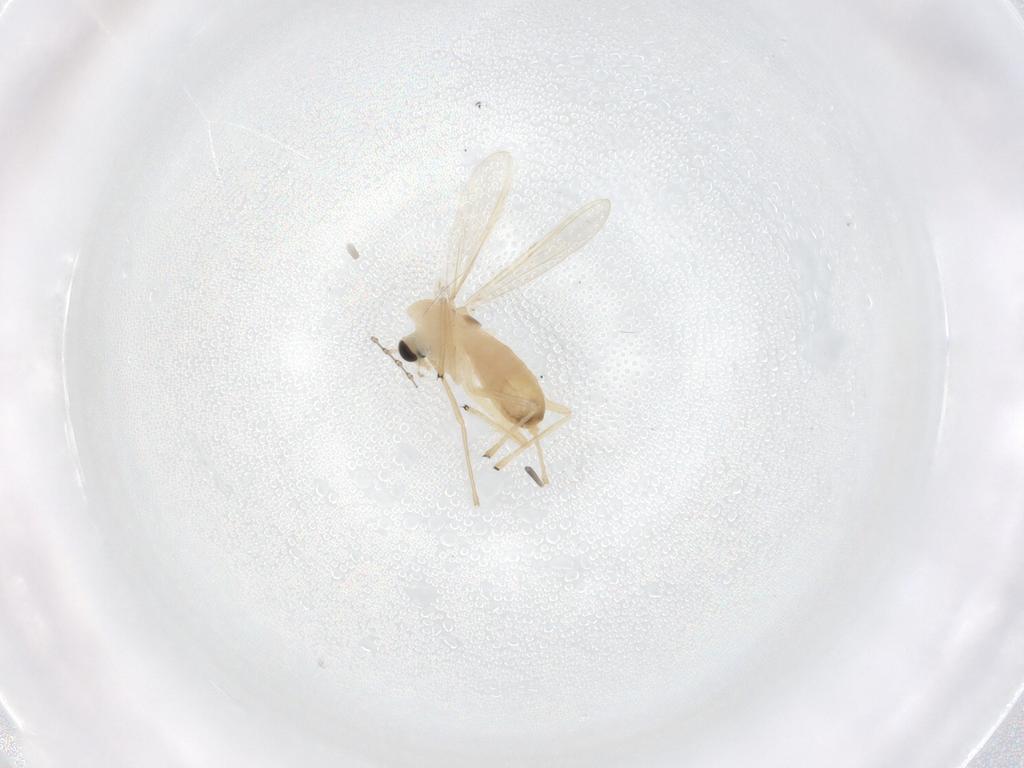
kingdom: Animalia
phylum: Arthropoda
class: Insecta
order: Diptera
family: Chironomidae
